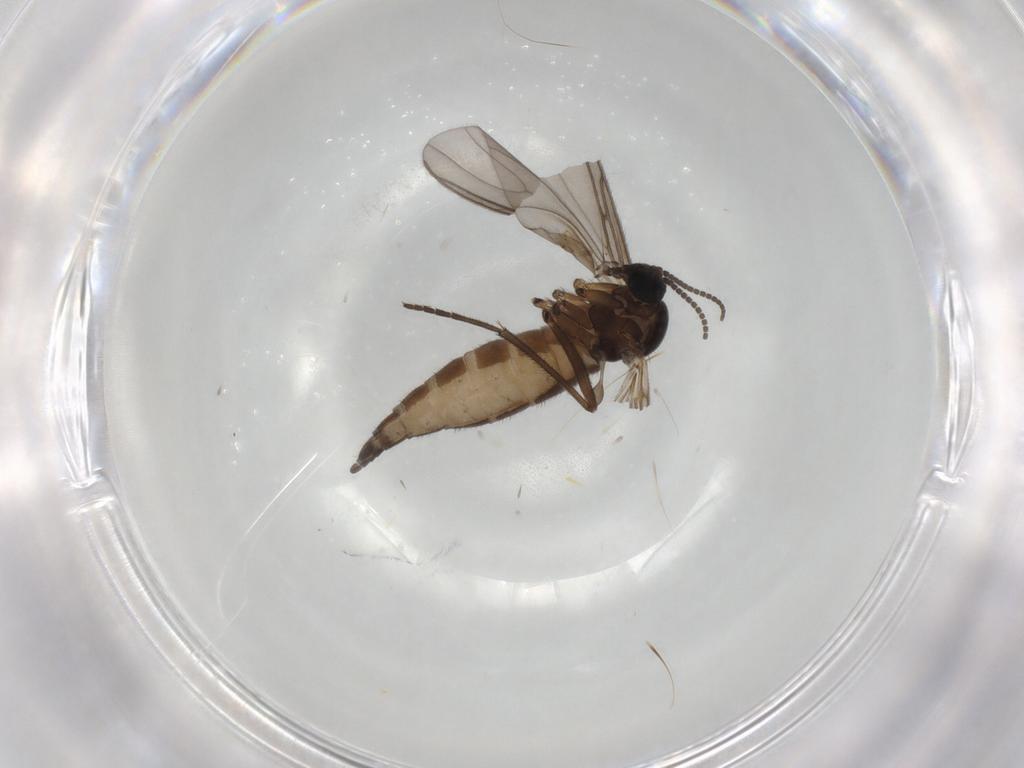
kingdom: Animalia
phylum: Arthropoda
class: Insecta
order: Diptera
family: Sciaridae
